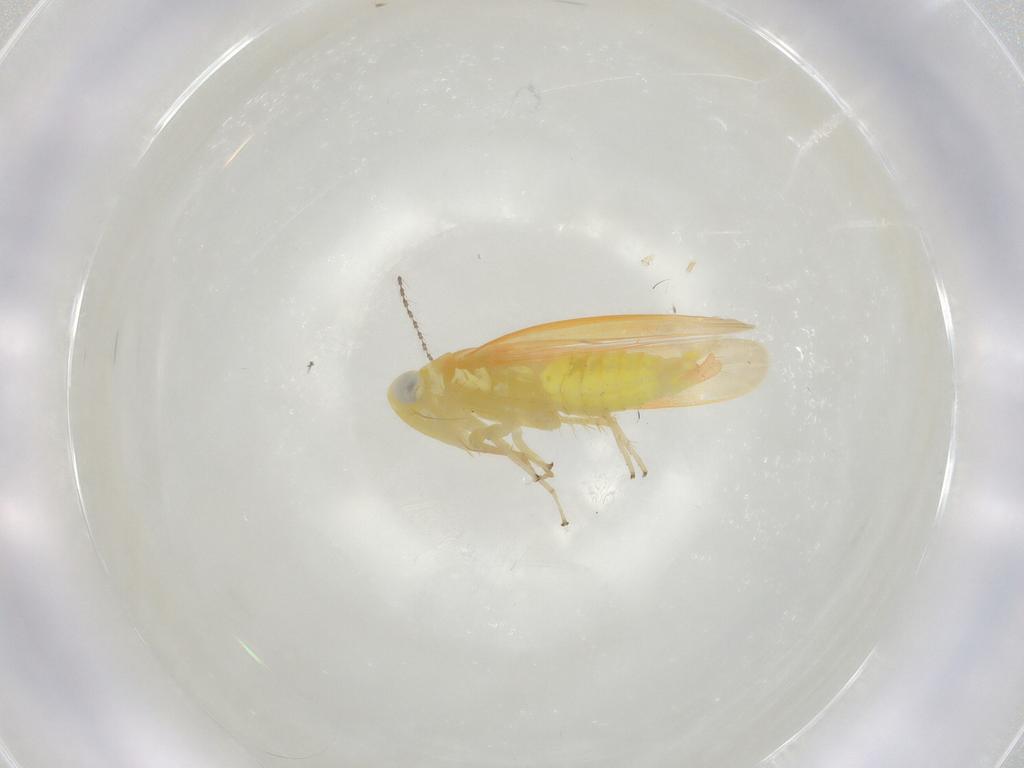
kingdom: Animalia
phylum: Arthropoda
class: Insecta
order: Hemiptera
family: Cicadellidae
